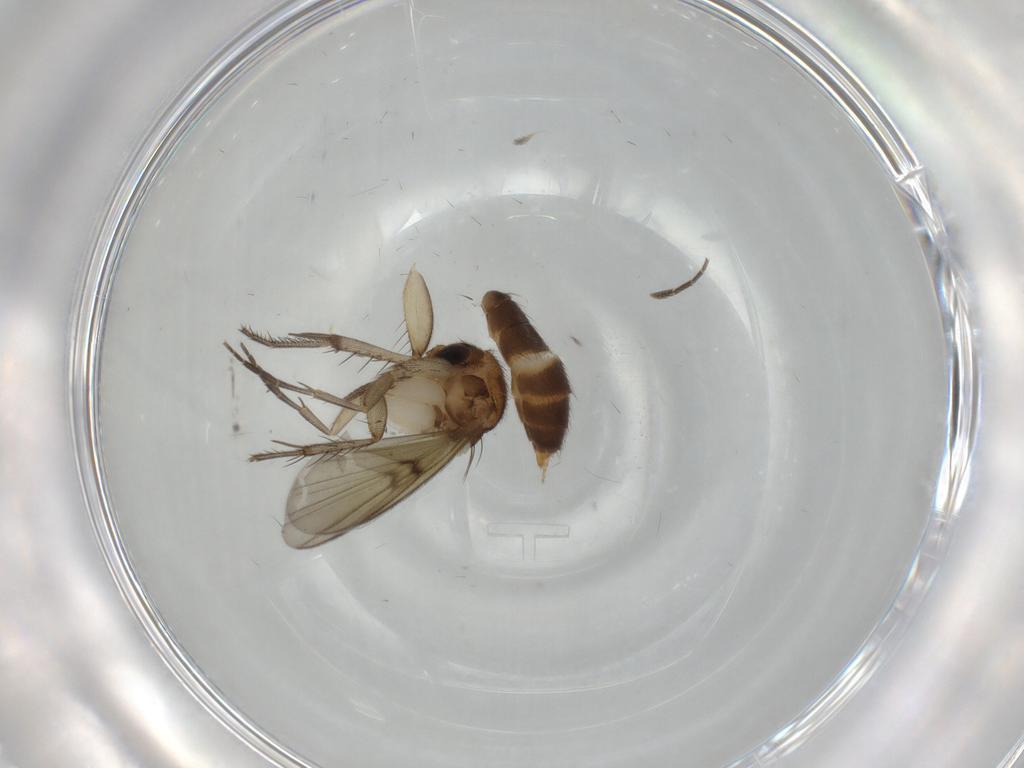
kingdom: Animalia
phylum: Arthropoda
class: Insecta
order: Diptera
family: Chironomidae
